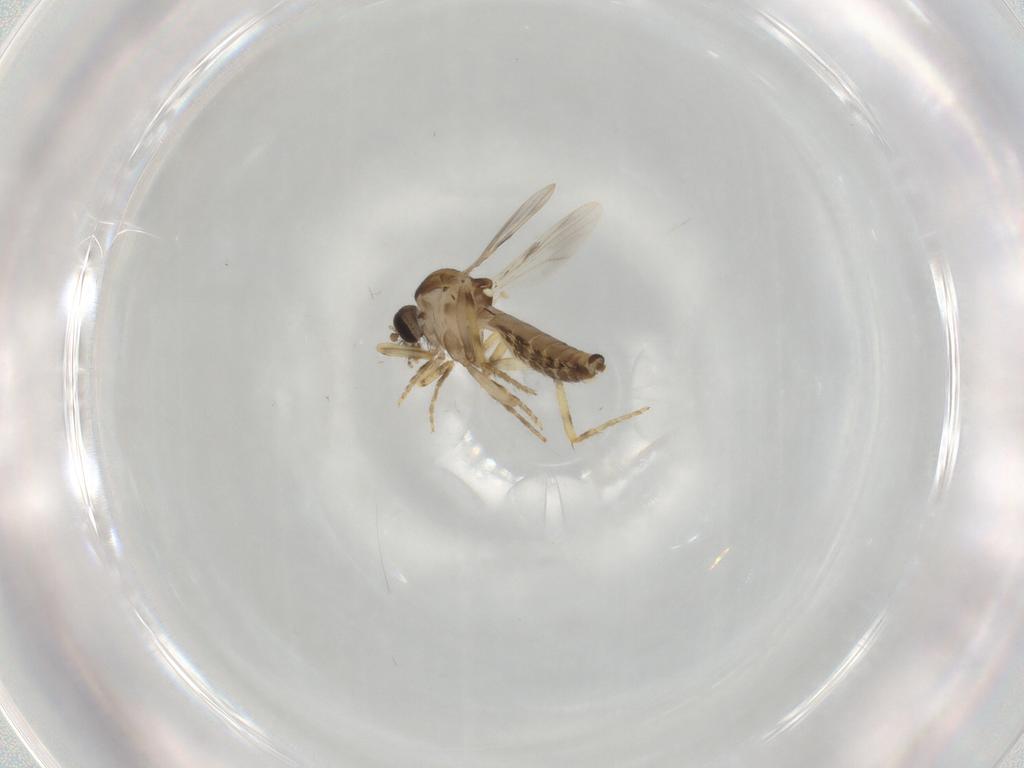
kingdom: Animalia
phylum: Arthropoda
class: Insecta
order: Diptera
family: Ceratopogonidae
